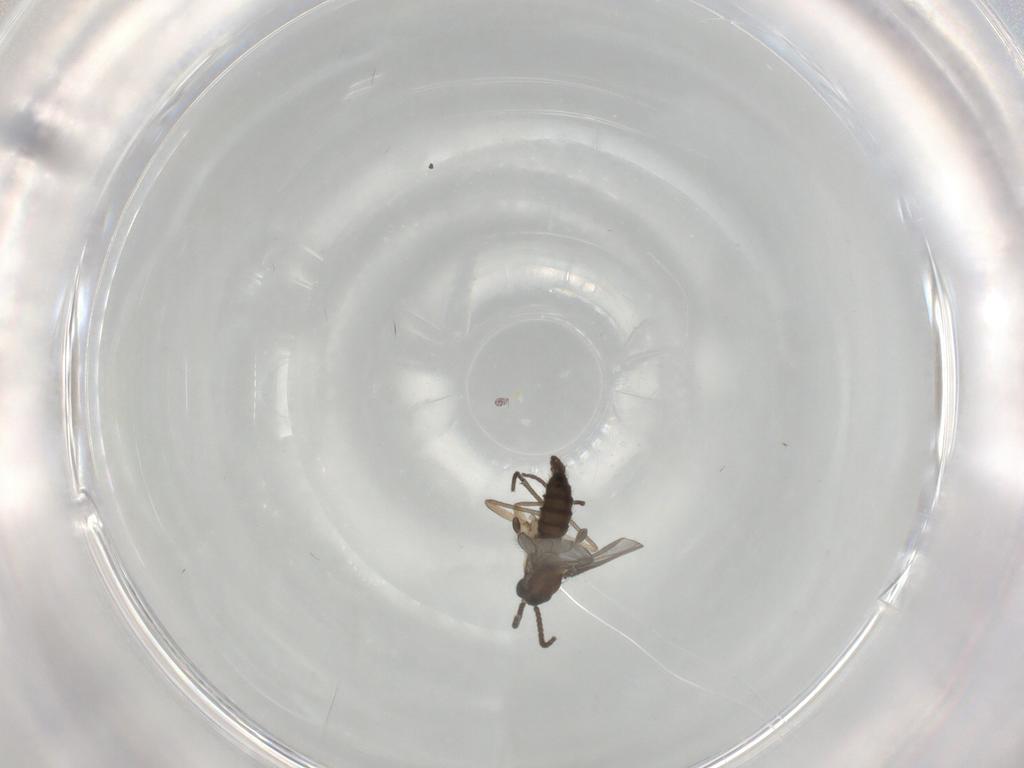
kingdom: Animalia
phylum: Arthropoda
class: Insecta
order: Diptera
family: Sciaridae
